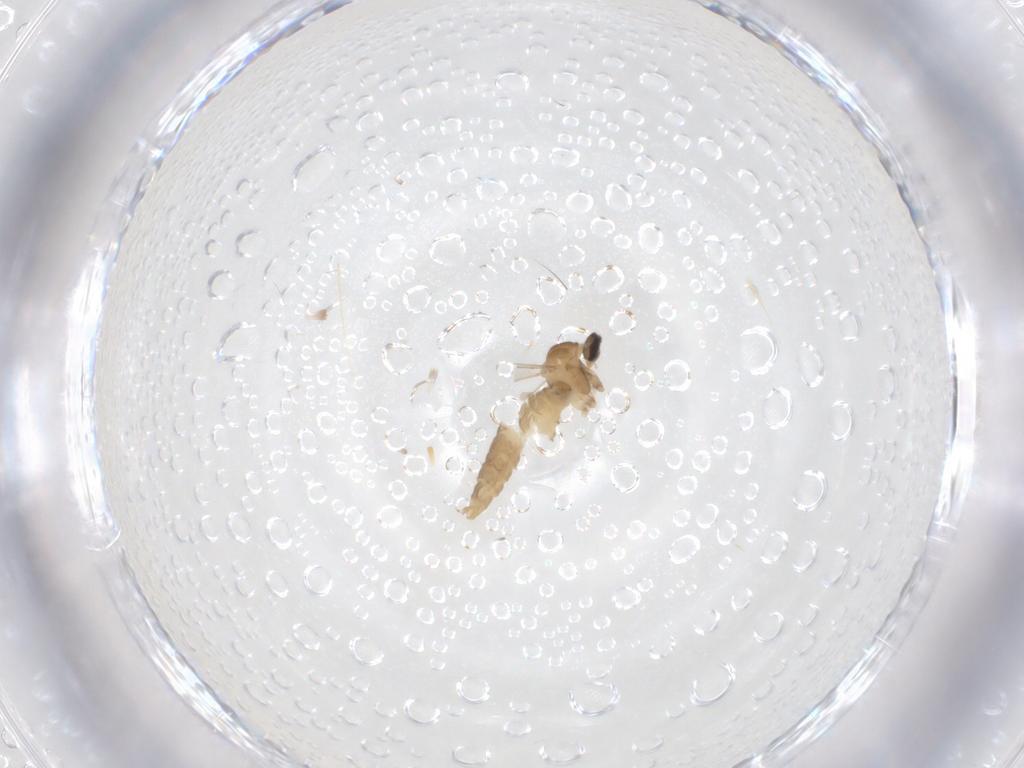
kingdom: Animalia
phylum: Arthropoda
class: Insecta
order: Diptera
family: Cecidomyiidae
